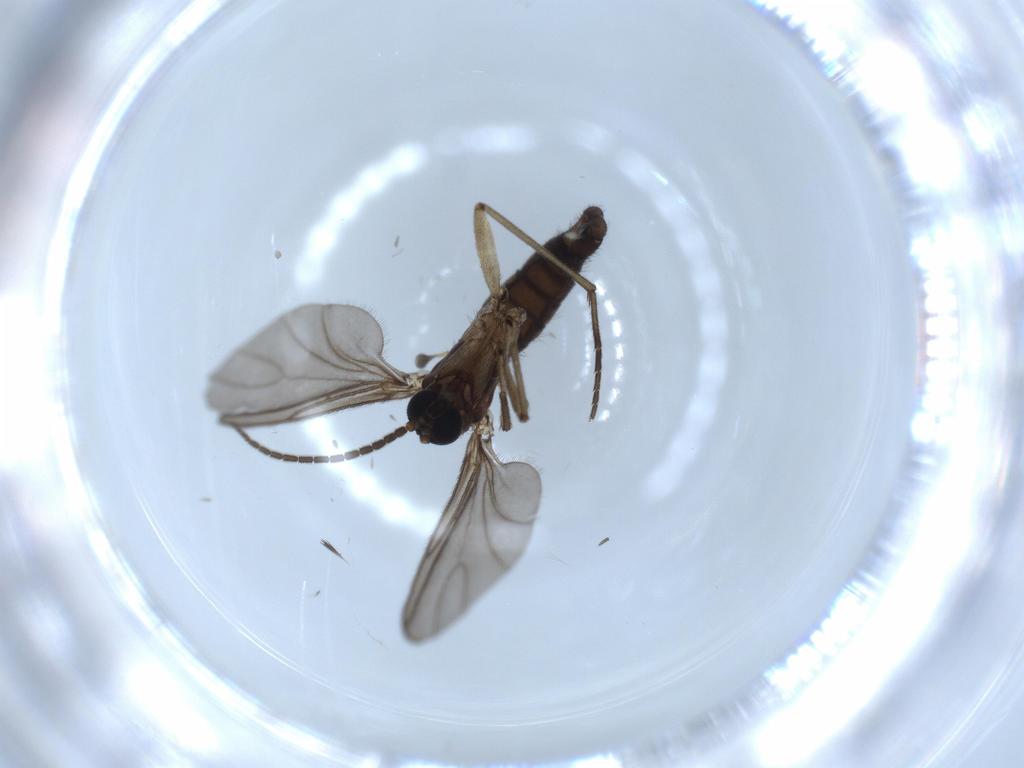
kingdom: Animalia
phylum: Arthropoda
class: Insecta
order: Diptera
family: Sciaridae
